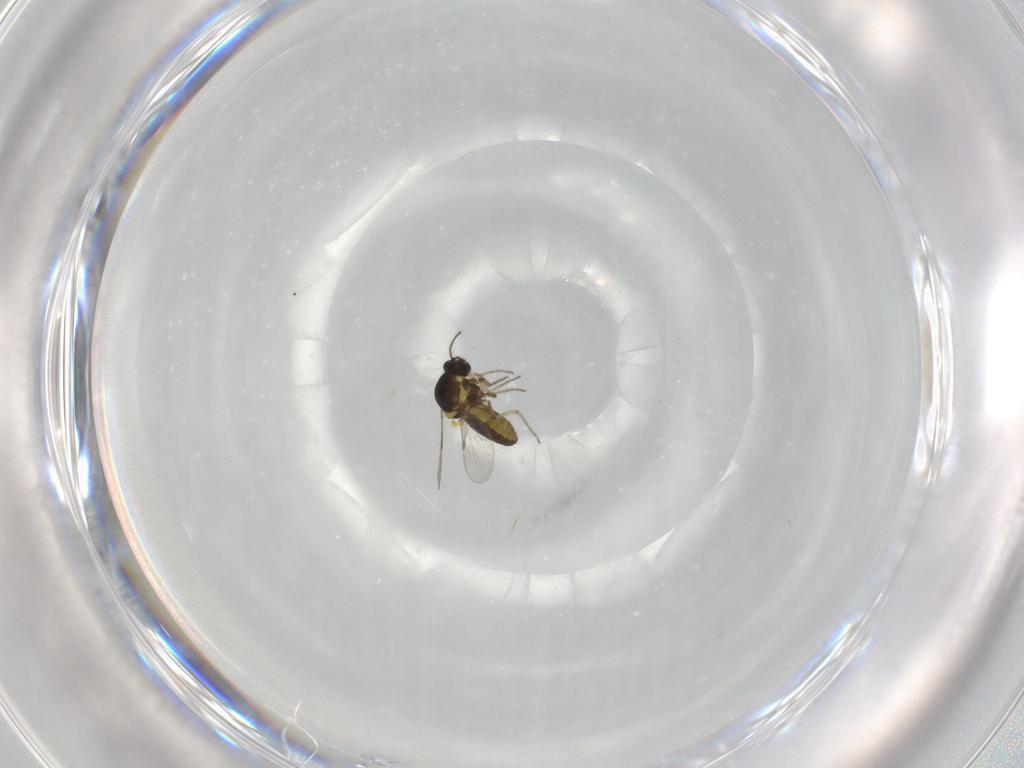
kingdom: Animalia
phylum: Arthropoda
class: Insecta
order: Diptera
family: Ceratopogonidae
